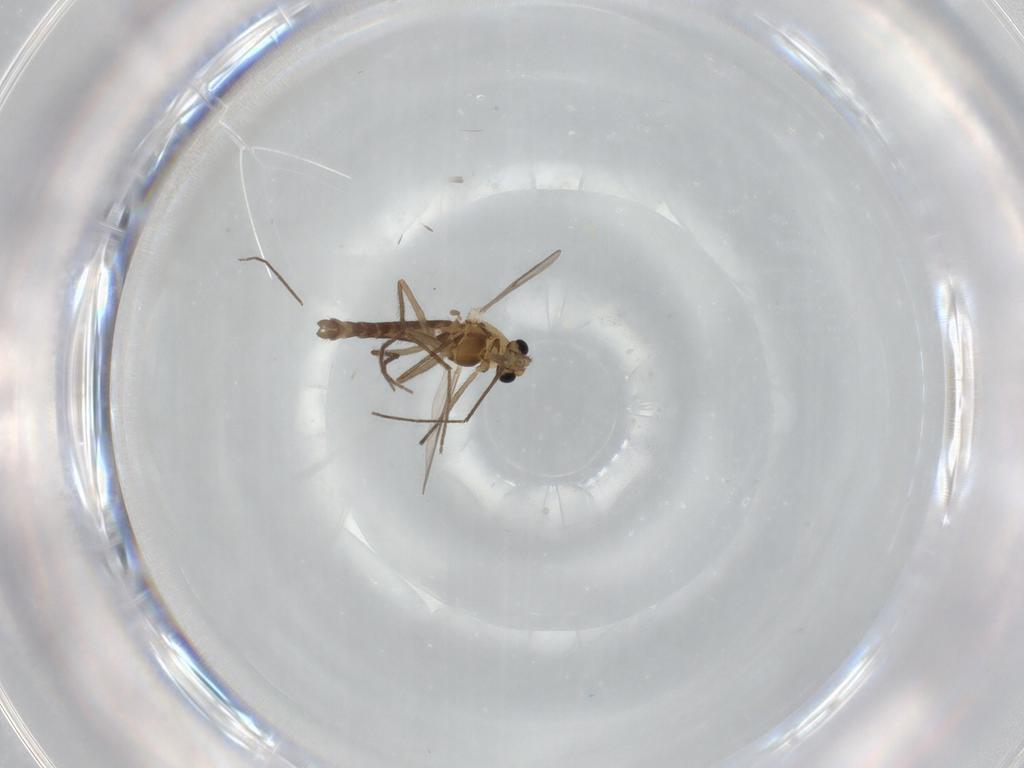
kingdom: Animalia
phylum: Arthropoda
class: Insecta
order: Diptera
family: Chironomidae
